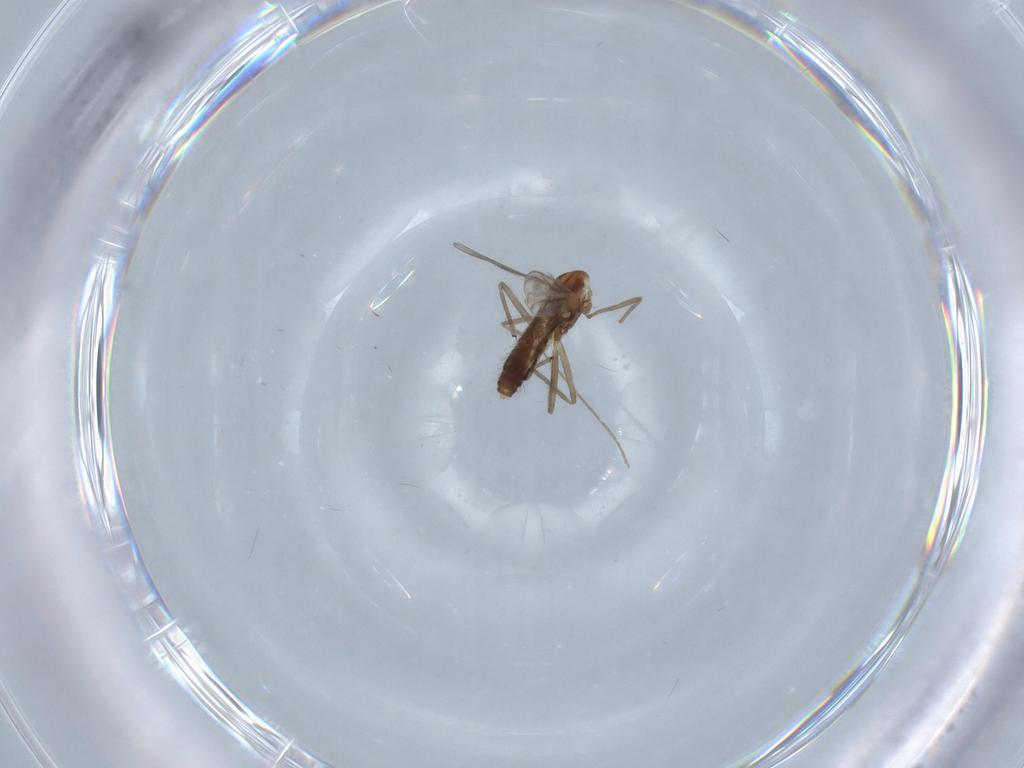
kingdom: Animalia
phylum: Arthropoda
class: Insecta
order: Diptera
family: Chironomidae
